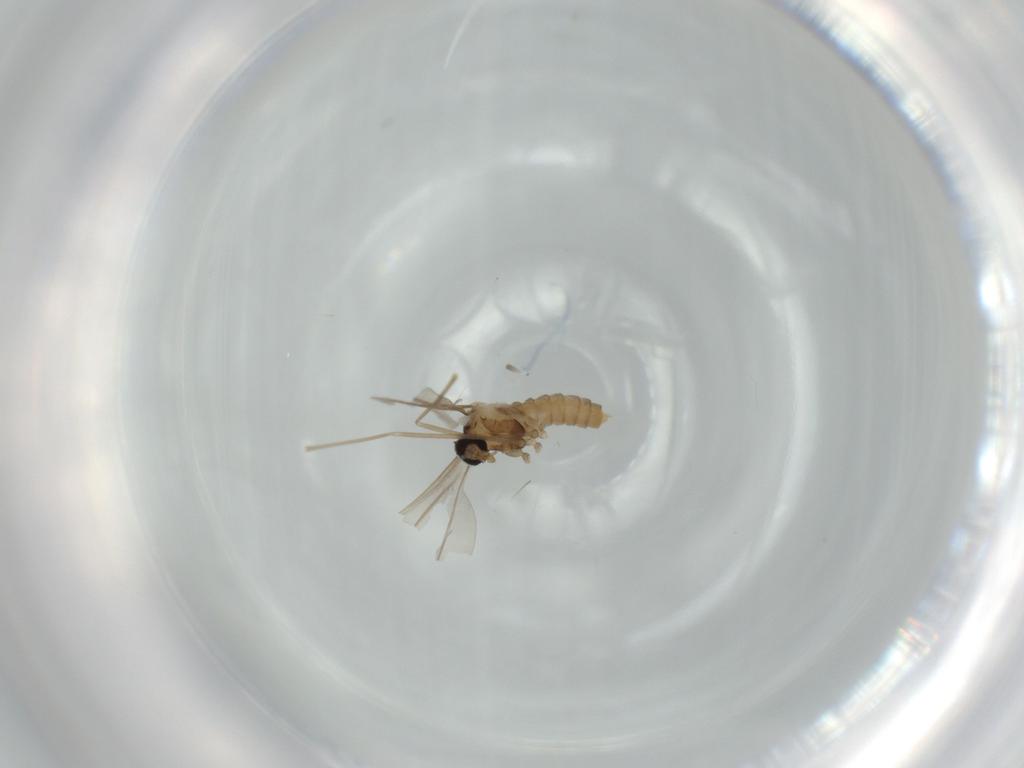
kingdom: Animalia
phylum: Arthropoda
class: Insecta
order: Diptera
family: Cecidomyiidae
